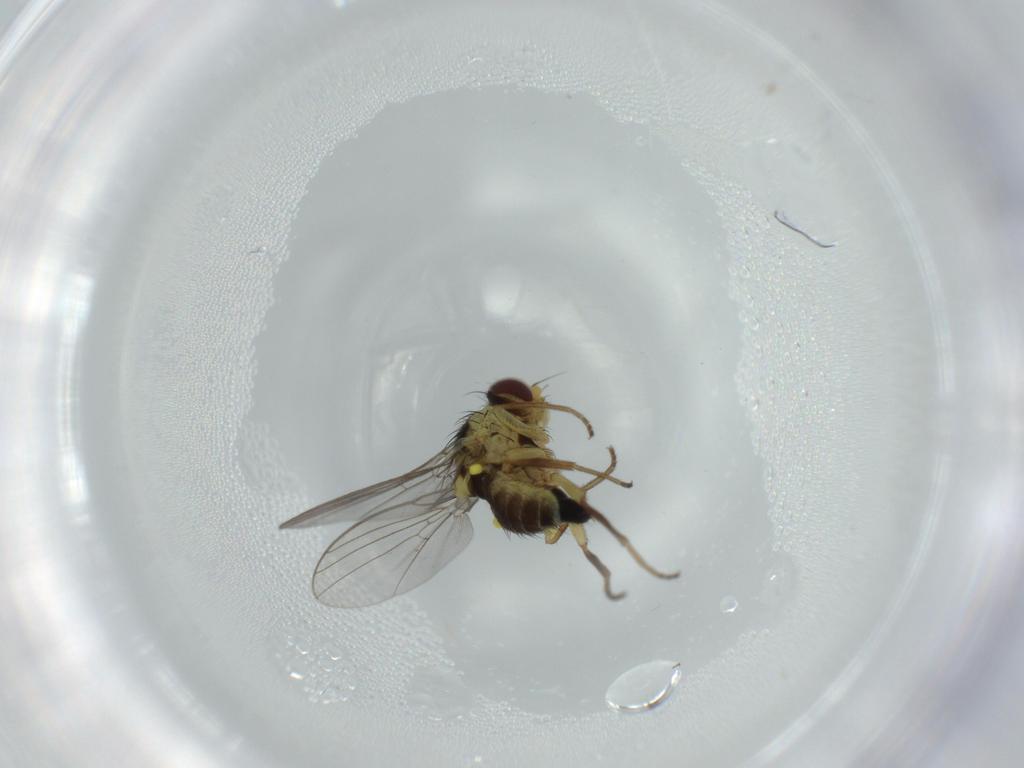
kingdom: Animalia
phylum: Arthropoda
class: Insecta
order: Diptera
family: Agromyzidae
